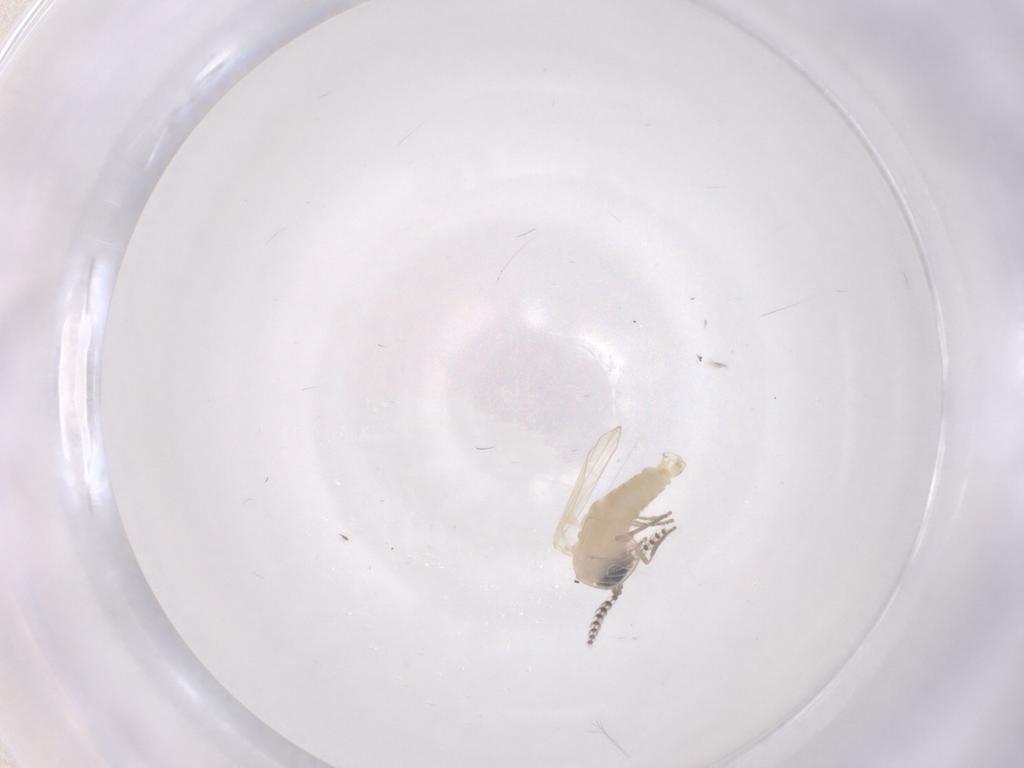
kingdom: Animalia
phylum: Arthropoda
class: Insecta
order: Diptera
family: Psychodidae
